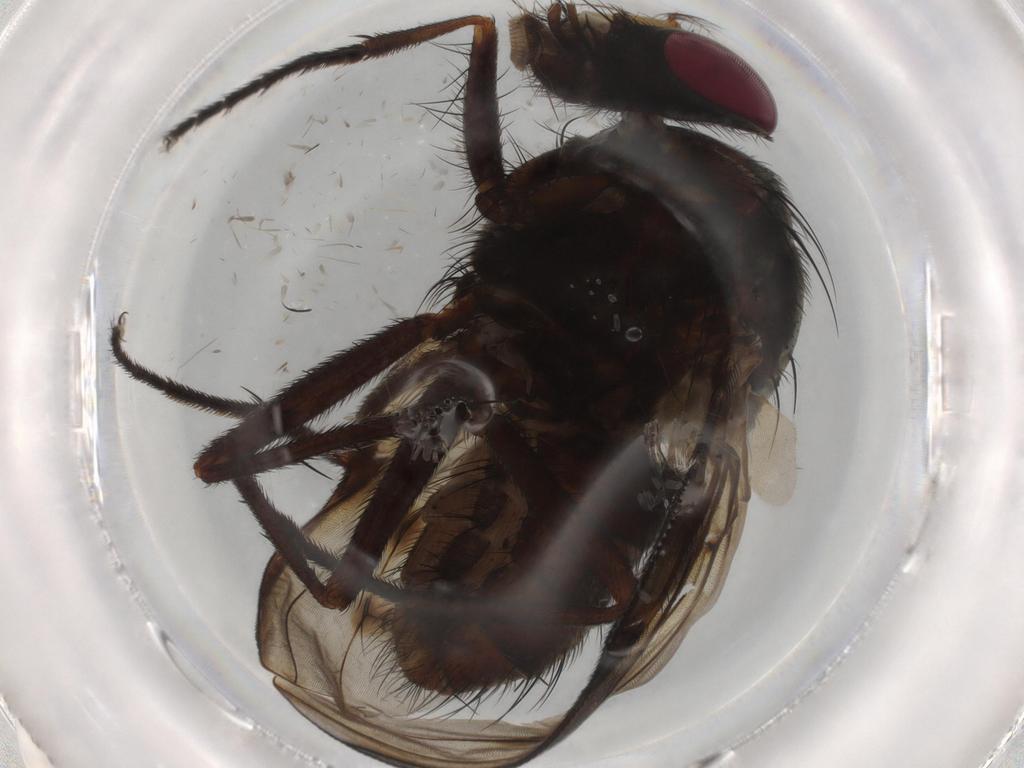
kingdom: Animalia
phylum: Arthropoda
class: Insecta
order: Diptera
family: Muscidae
